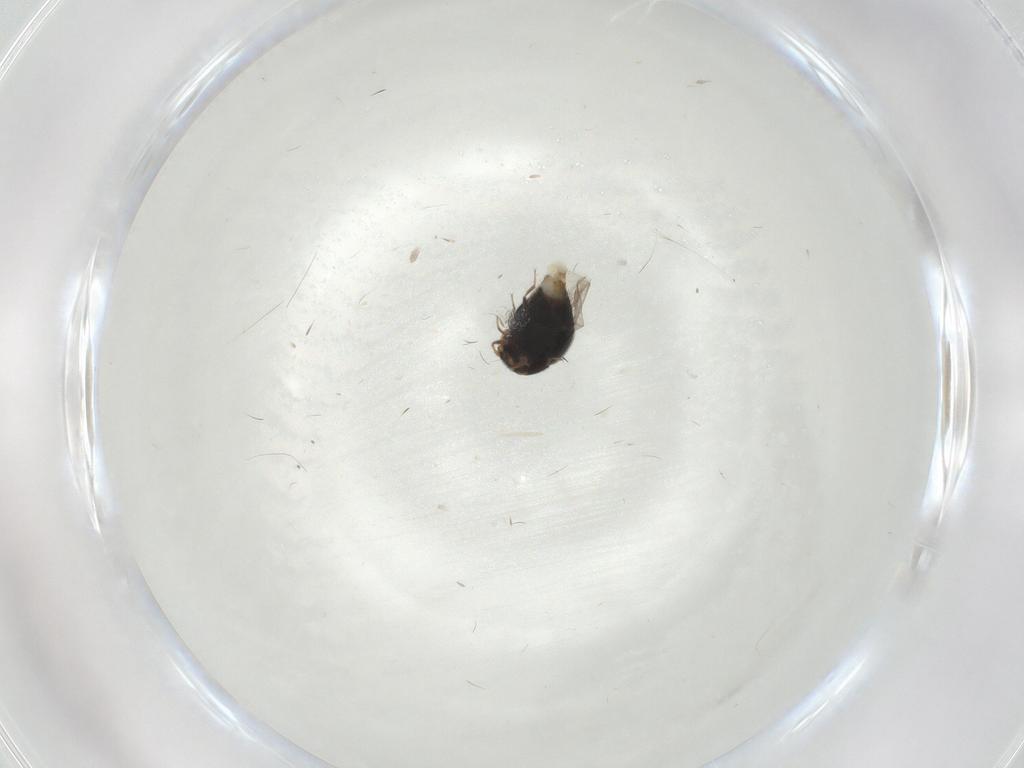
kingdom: Animalia
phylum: Arthropoda
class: Insecta
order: Coleoptera
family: Staphylinidae
